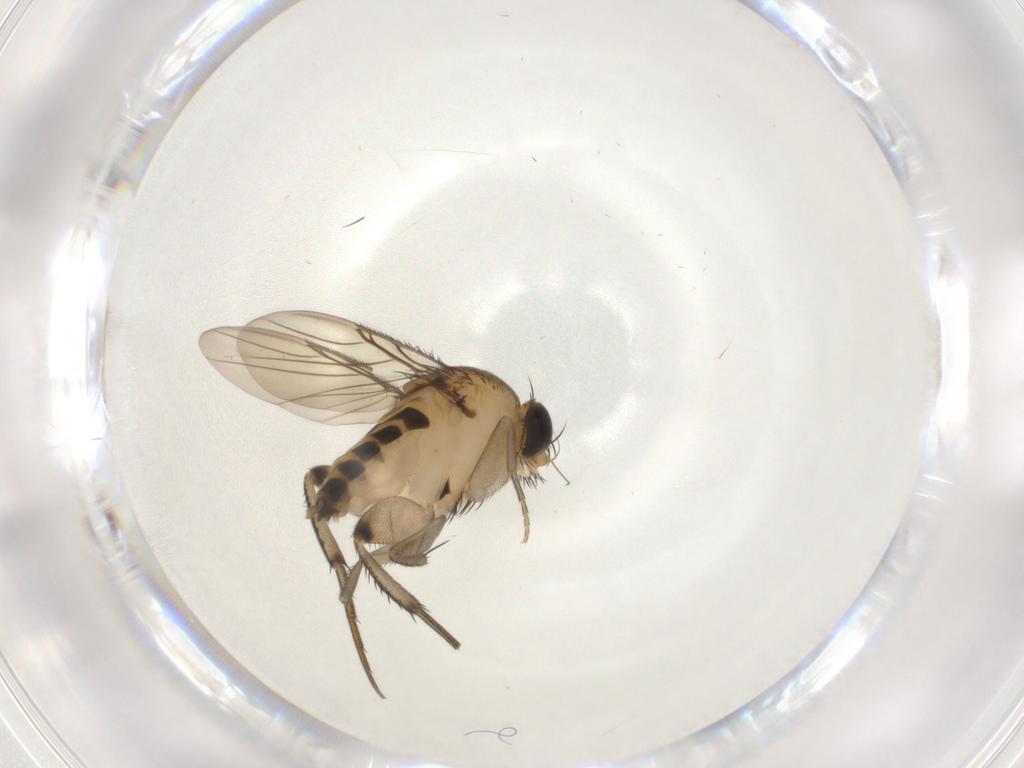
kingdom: Animalia
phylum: Arthropoda
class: Insecta
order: Diptera
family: Phoridae
